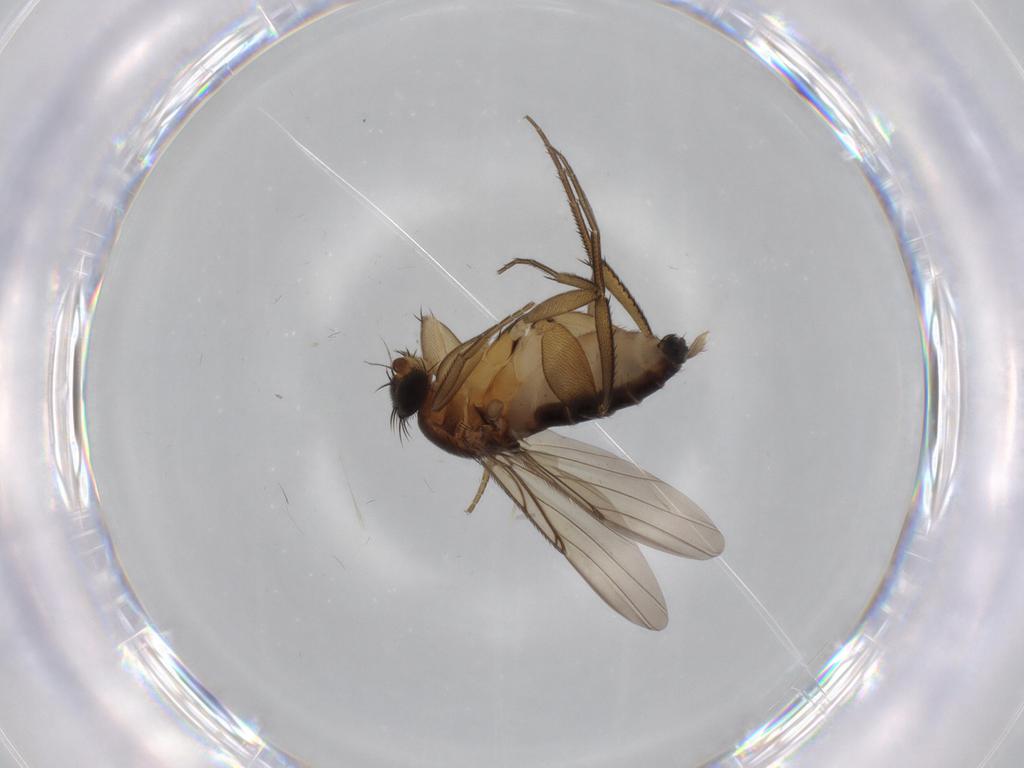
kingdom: Animalia
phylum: Arthropoda
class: Insecta
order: Diptera
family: Phoridae
